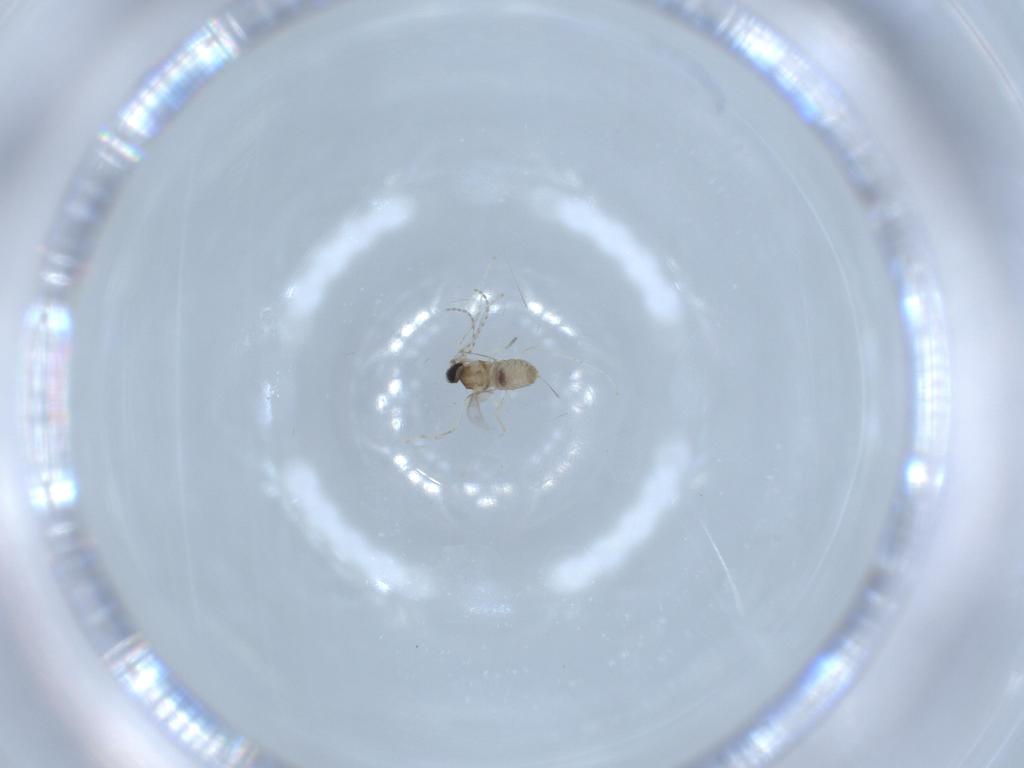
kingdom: Animalia
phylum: Arthropoda
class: Insecta
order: Diptera
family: Cecidomyiidae
